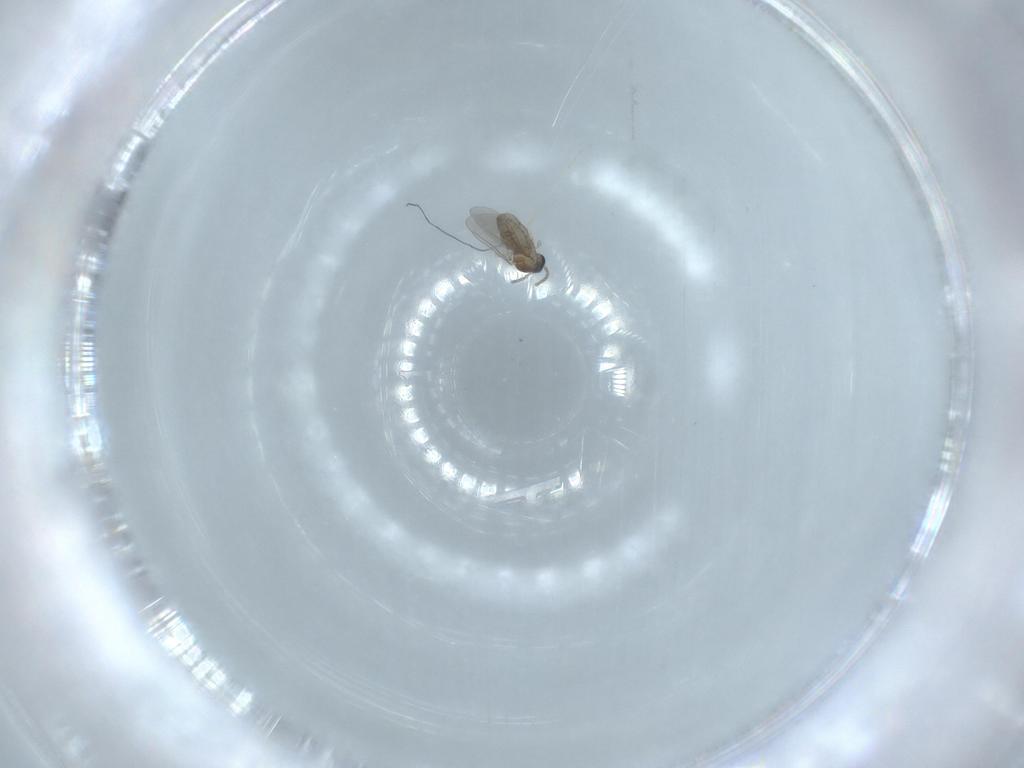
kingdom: Animalia
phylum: Arthropoda
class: Insecta
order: Diptera
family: Cecidomyiidae
